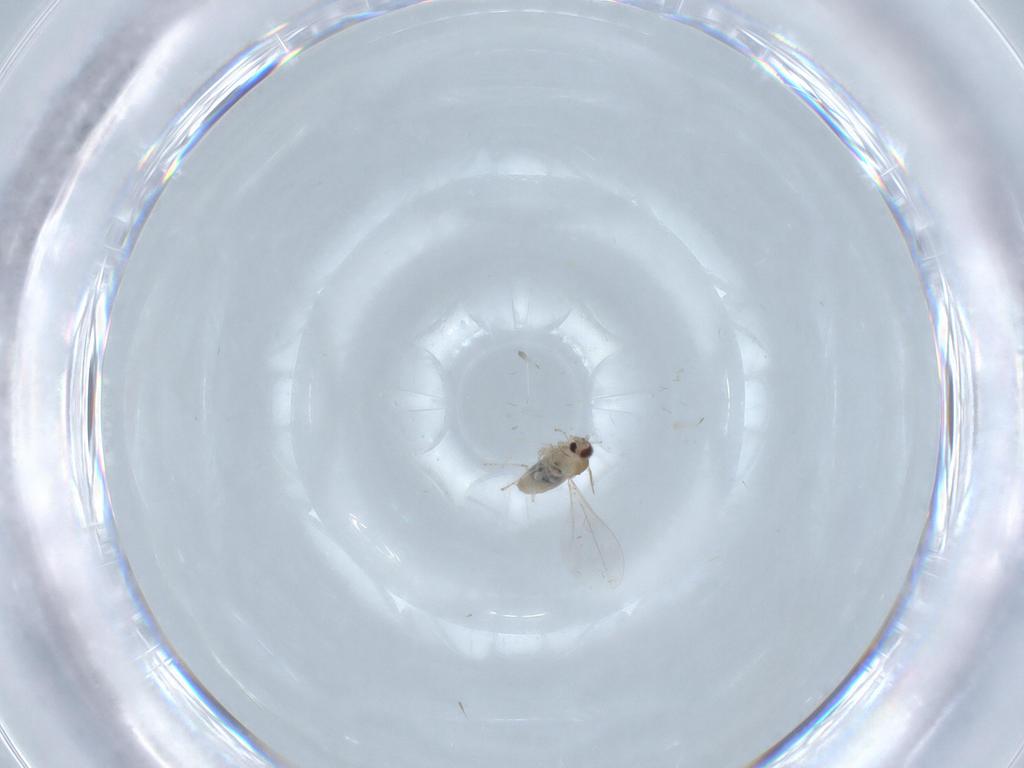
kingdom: Animalia
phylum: Arthropoda
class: Insecta
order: Diptera
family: Cecidomyiidae
